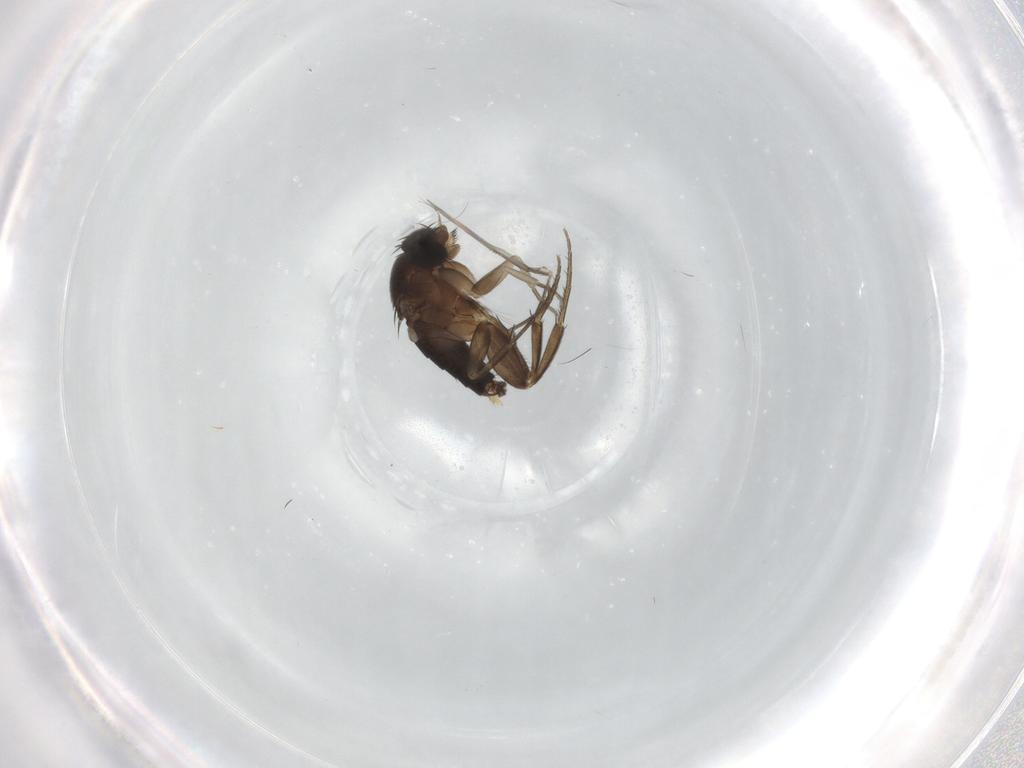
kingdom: Animalia
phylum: Arthropoda
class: Insecta
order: Diptera
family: Phoridae
